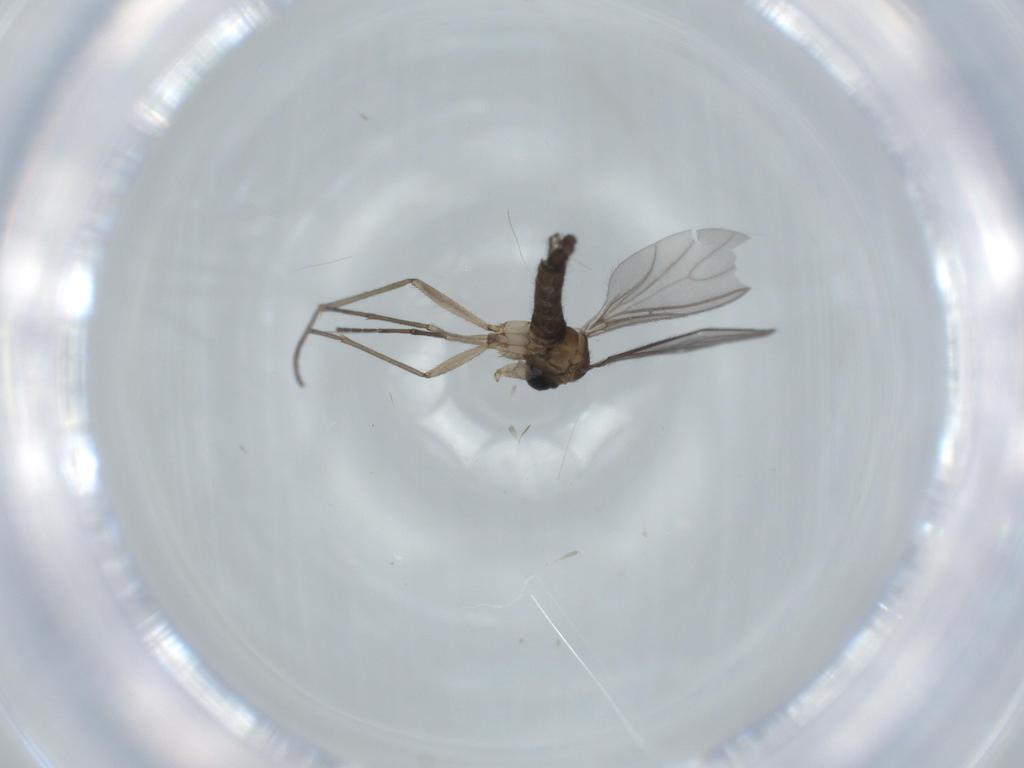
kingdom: Animalia
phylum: Arthropoda
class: Insecta
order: Diptera
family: Sciaridae
